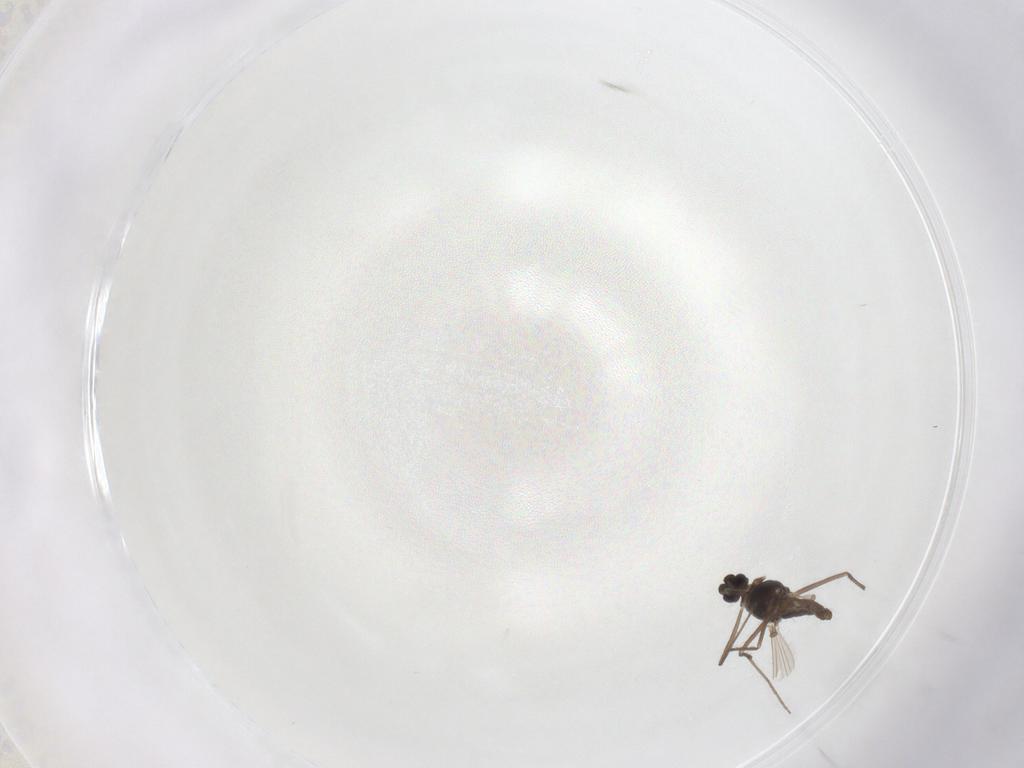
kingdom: Animalia
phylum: Arthropoda
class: Insecta
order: Diptera
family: Chironomidae
